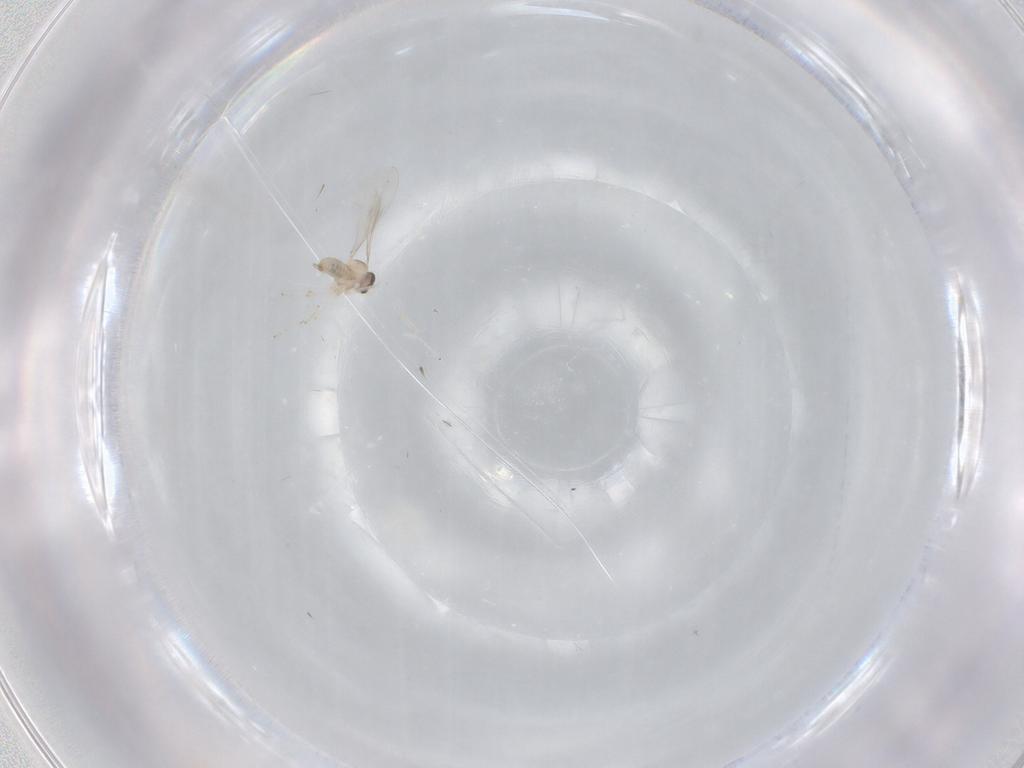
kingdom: Animalia
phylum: Arthropoda
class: Insecta
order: Diptera
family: Cecidomyiidae
